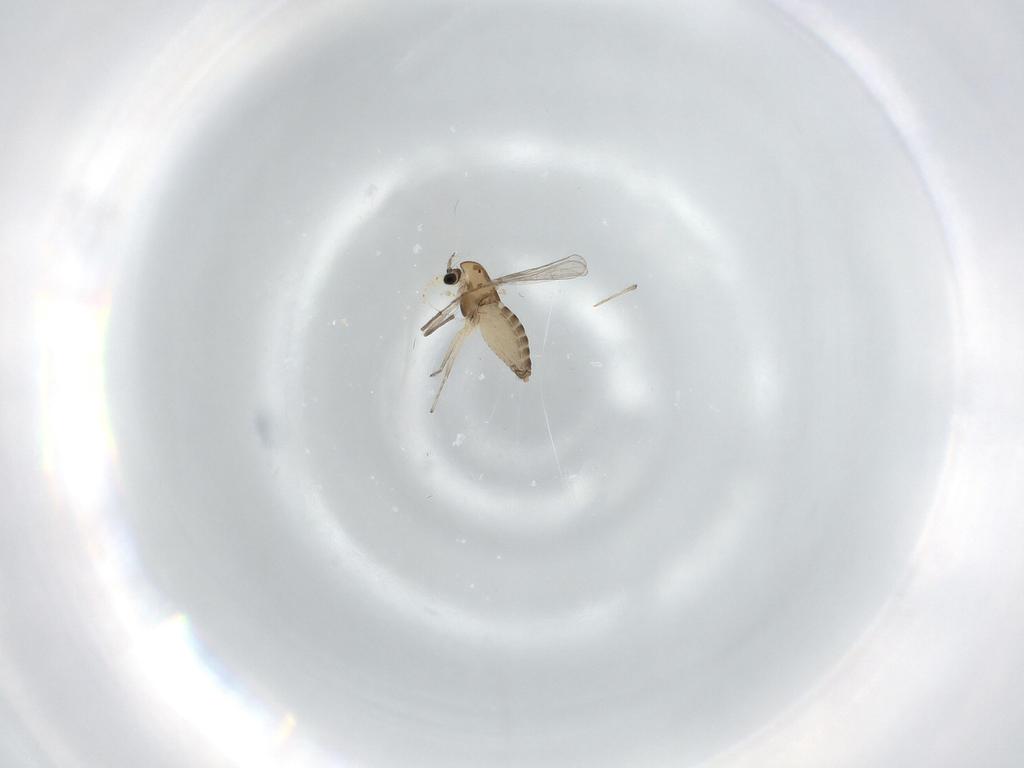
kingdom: Animalia
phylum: Arthropoda
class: Insecta
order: Diptera
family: Chironomidae
